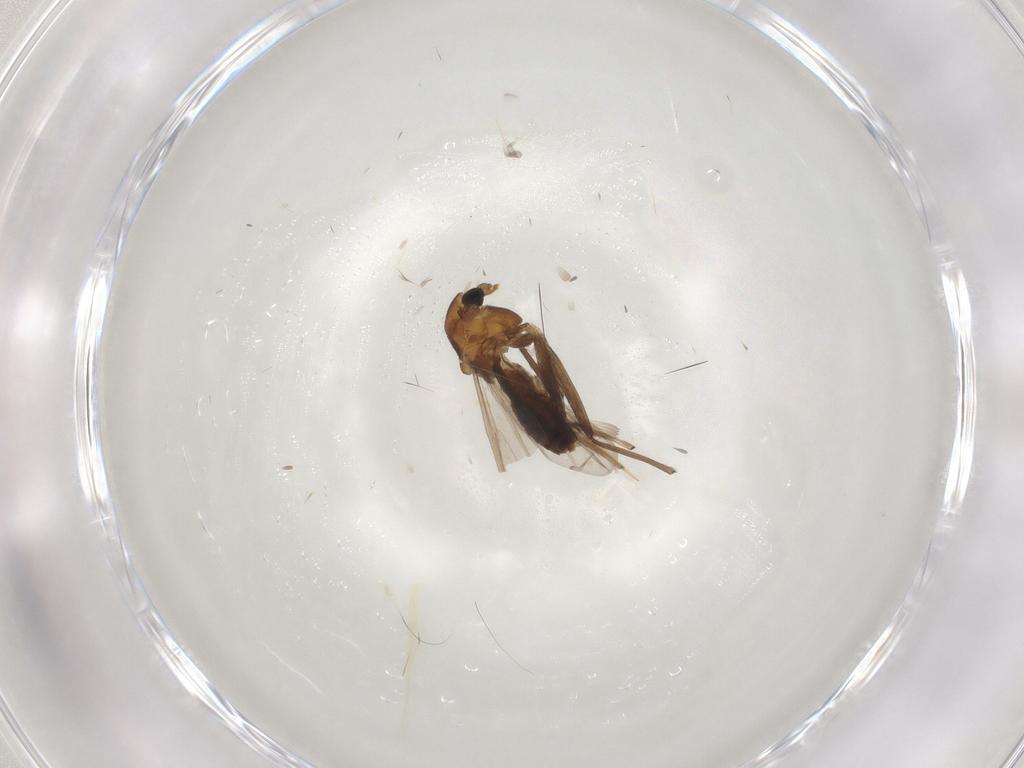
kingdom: Animalia
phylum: Arthropoda
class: Insecta
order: Diptera
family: Chironomidae
